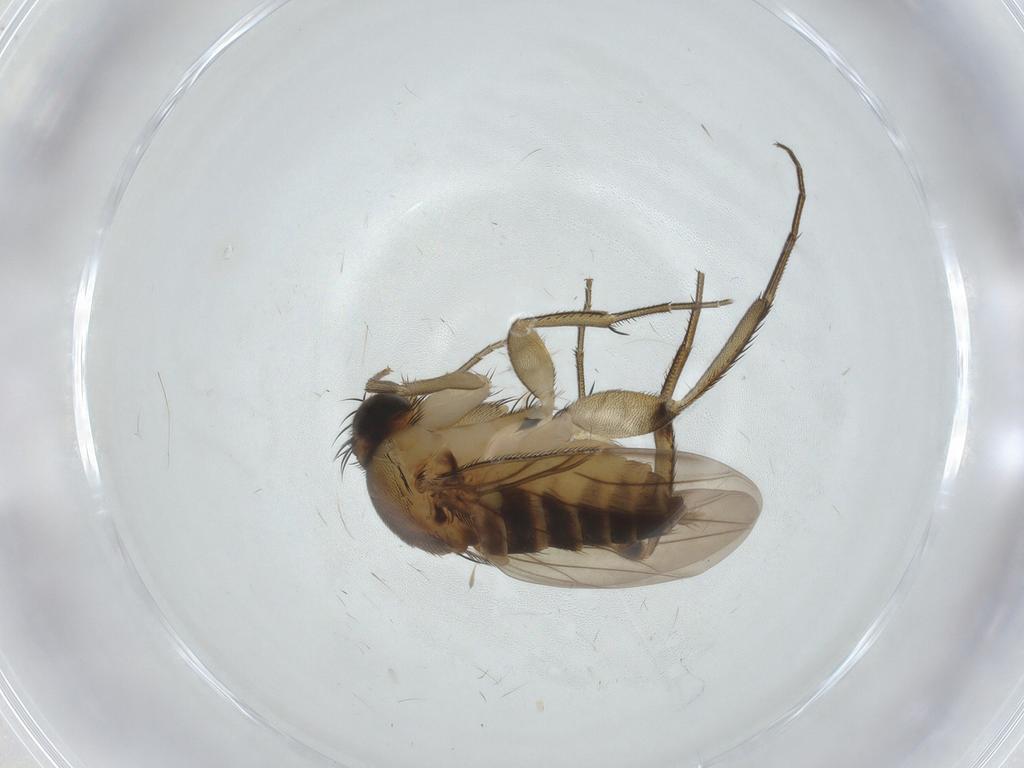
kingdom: Animalia
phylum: Arthropoda
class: Insecta
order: Diptera
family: Phoridae
